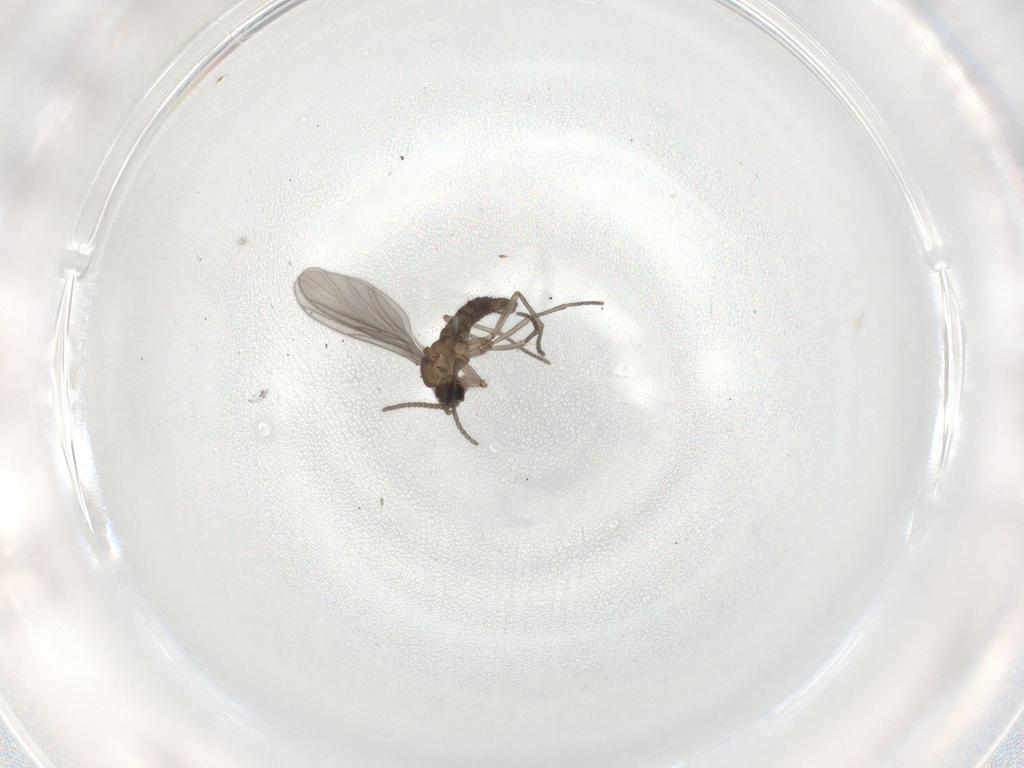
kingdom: Animalia
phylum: Arthropoda
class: Insecta
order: Diptera
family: Sciaridae
